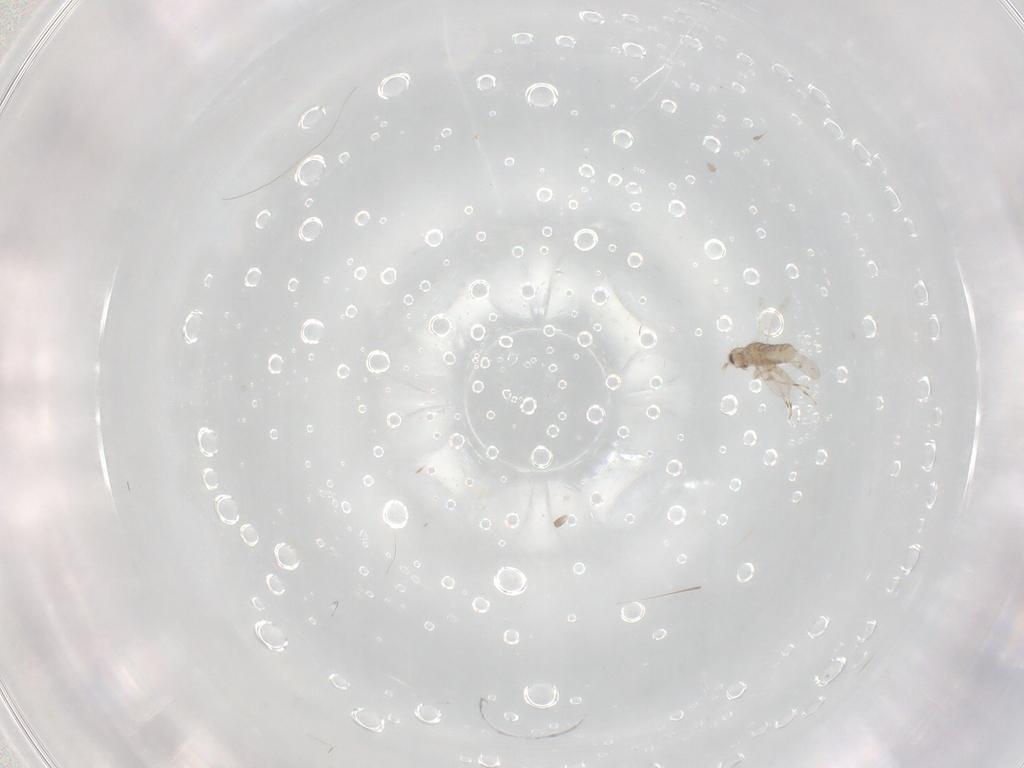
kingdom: Animalia
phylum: Arthropoda
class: Insecta
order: Hymenoptera
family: Aphelinidae
